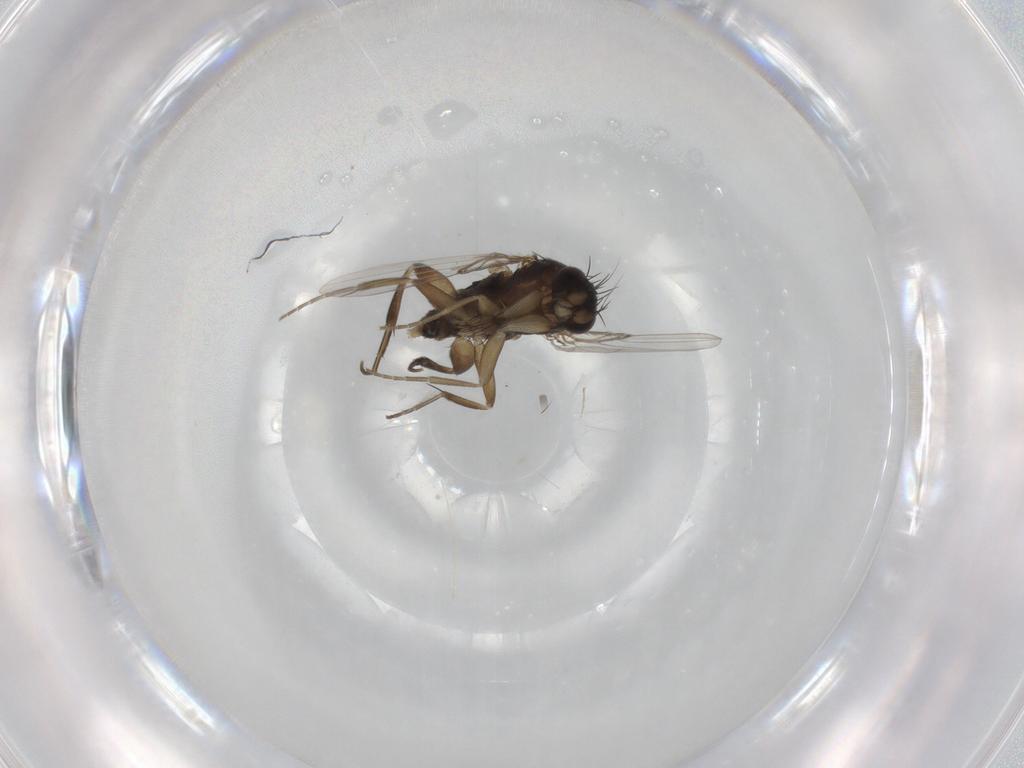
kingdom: Animalia
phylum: Arthropoda
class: Insecta
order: Diptera
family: Phoridae
